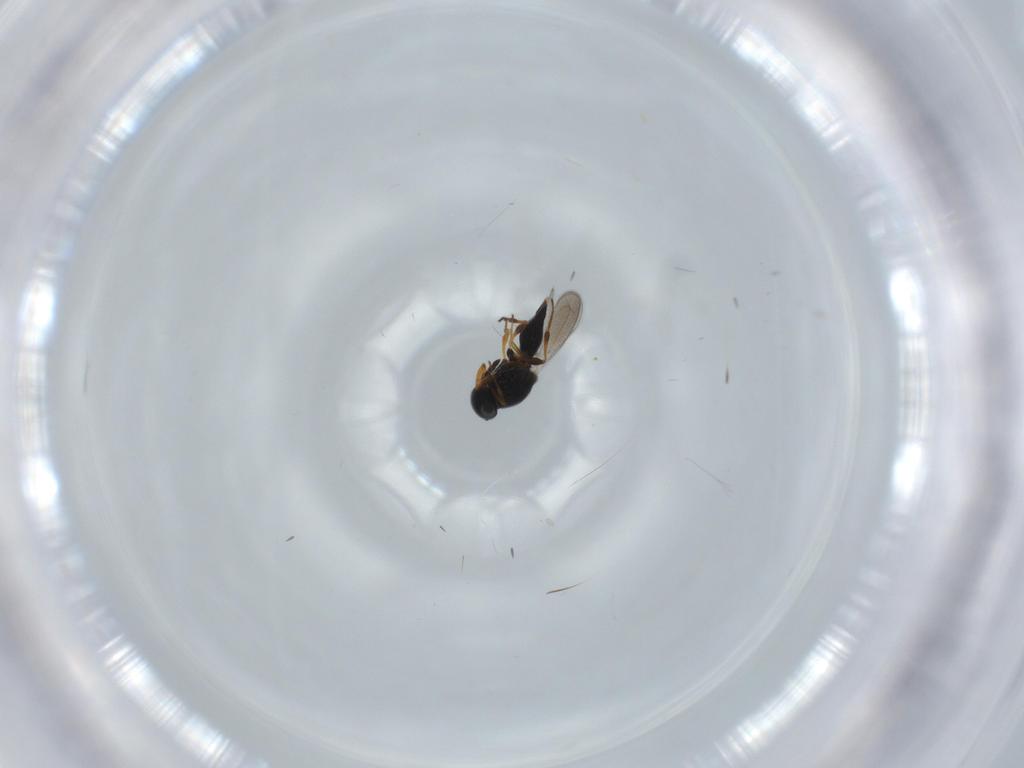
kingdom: Animalia
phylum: Arthropoda
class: Insecta
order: Hymenoptera
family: Platygastridae
